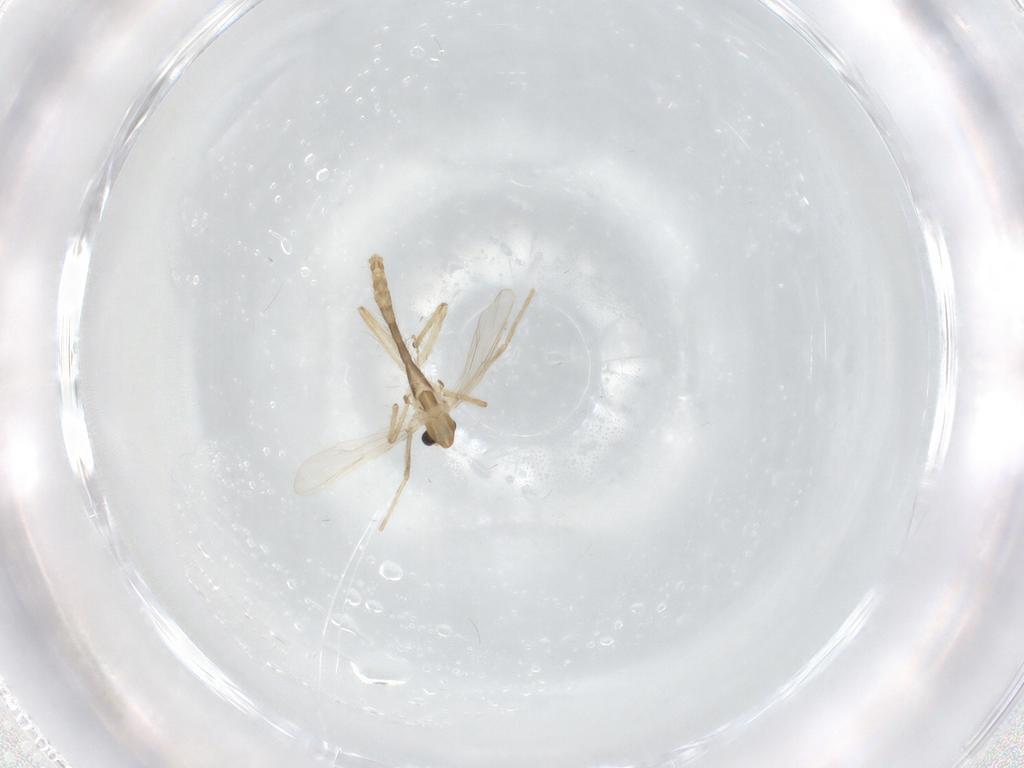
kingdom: Animalia
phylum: Arthropoda
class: Insecta
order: Diptera
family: Chironomidae
